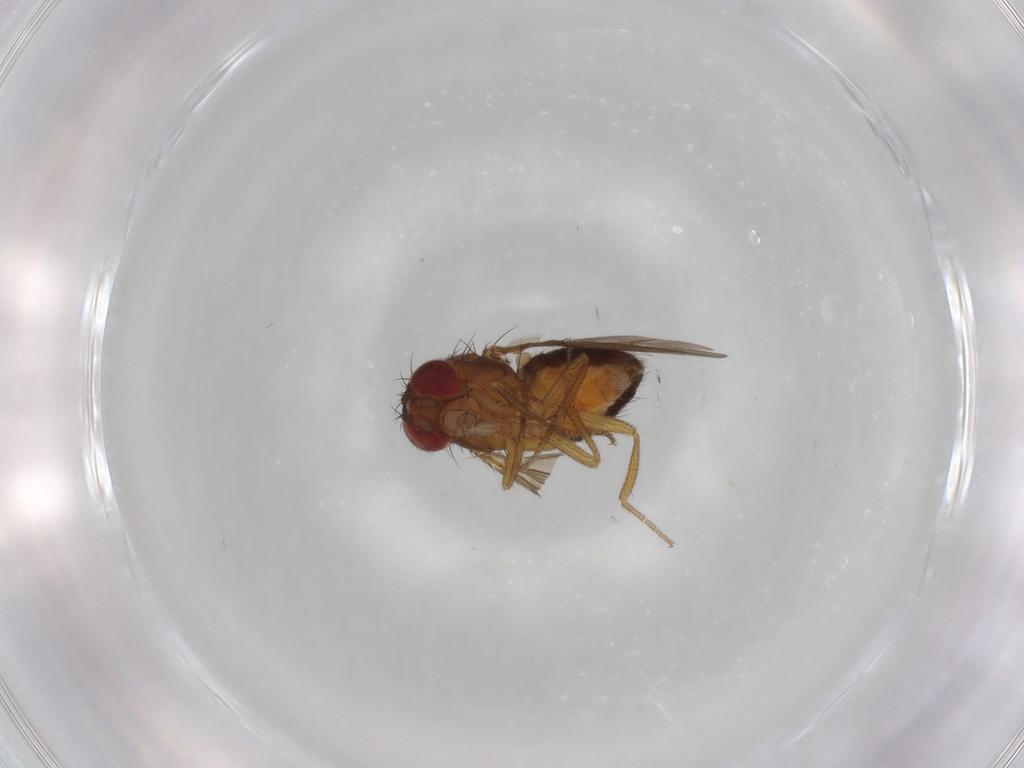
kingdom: Animalia
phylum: Arthropoda
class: Insecta
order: Diptera
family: Drosophilidae
